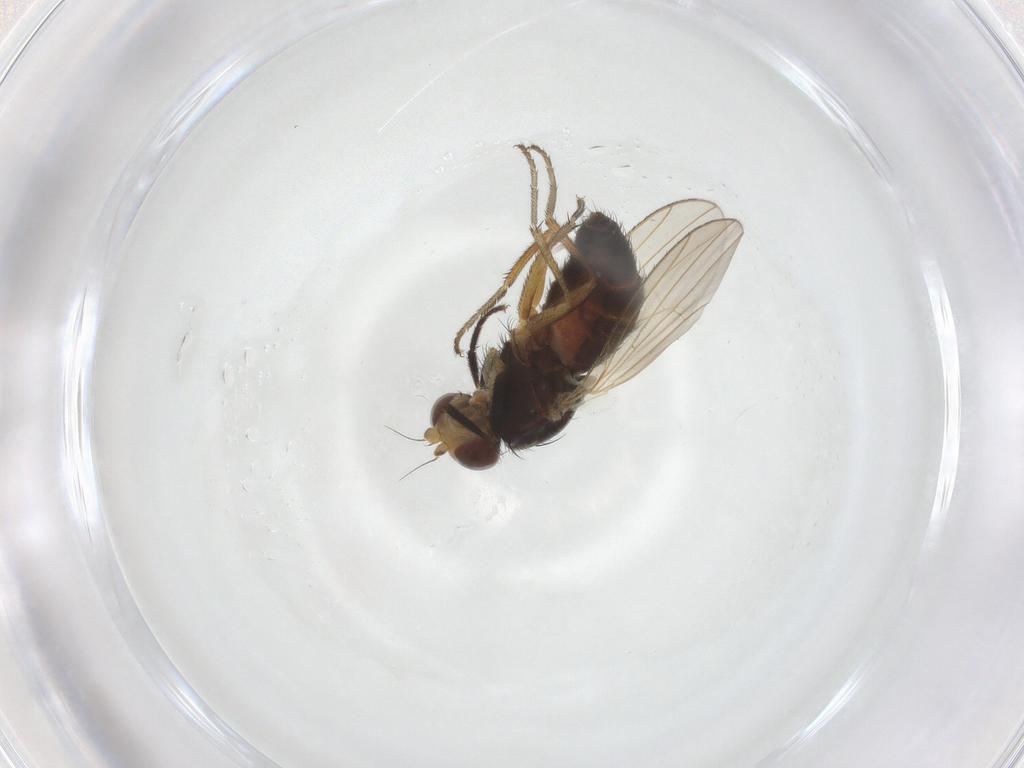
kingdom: Animalia
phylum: Arthropoda
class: Insecta
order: Diptera
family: Heleomyzidae
